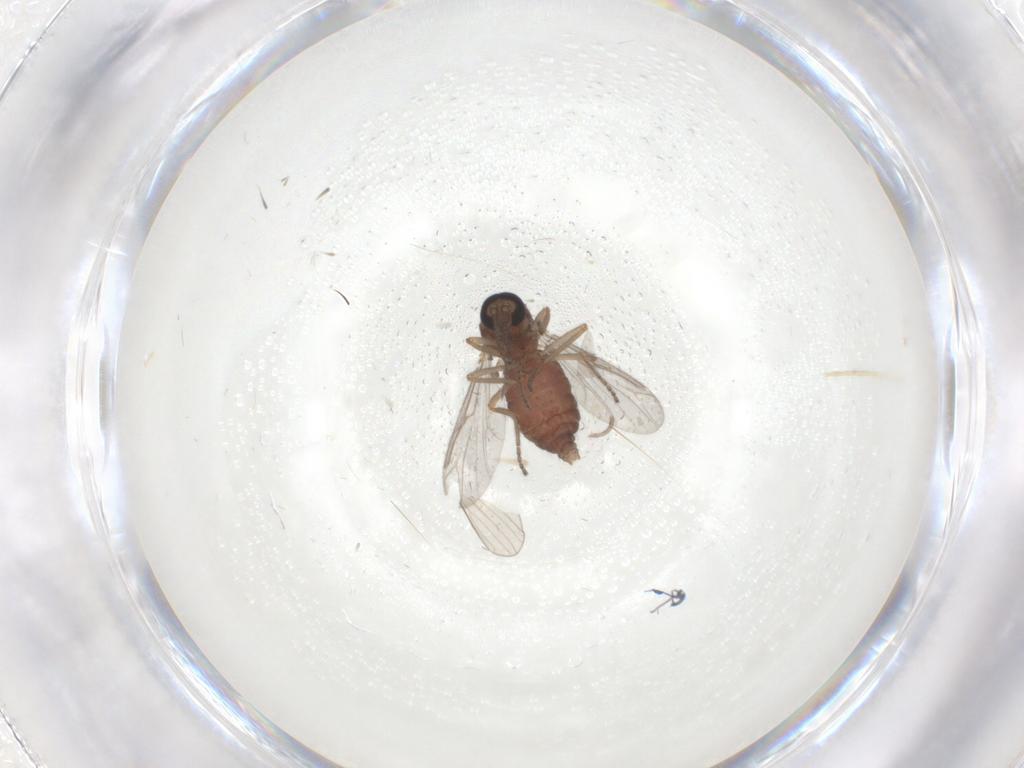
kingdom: Animalia
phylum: Arthropoda
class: Insecta
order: Diptera
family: Ceratopogonidae
